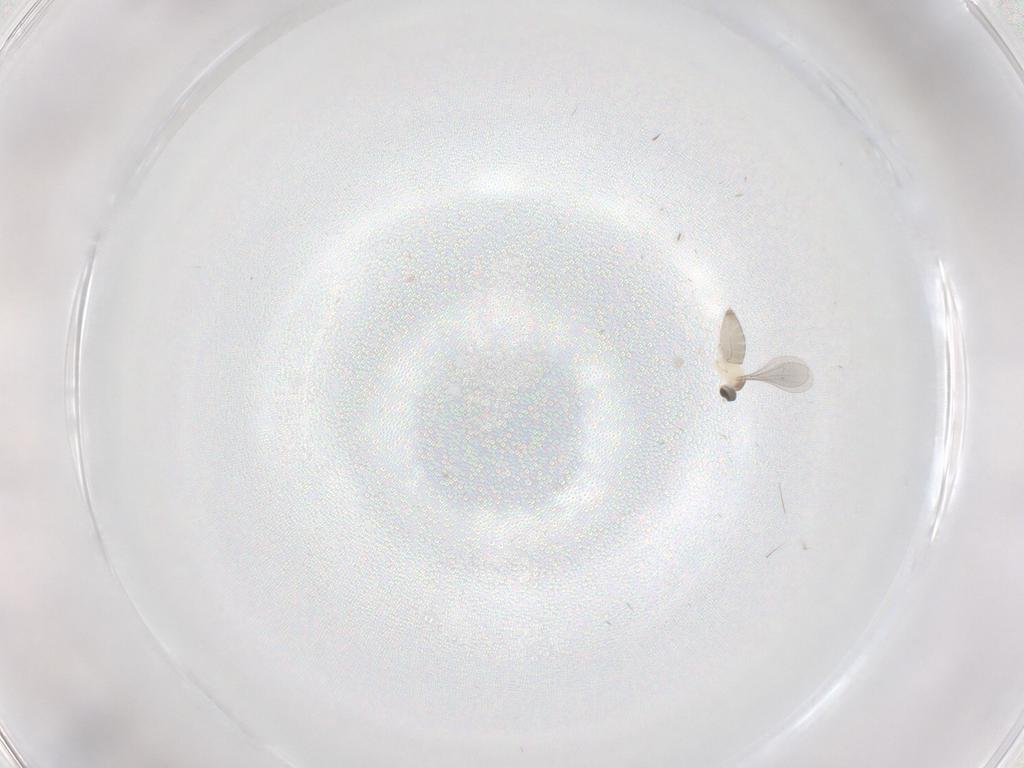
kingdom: Animalia
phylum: Arthropoda
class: Insecta
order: Diptera
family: Cecidomyiidae
